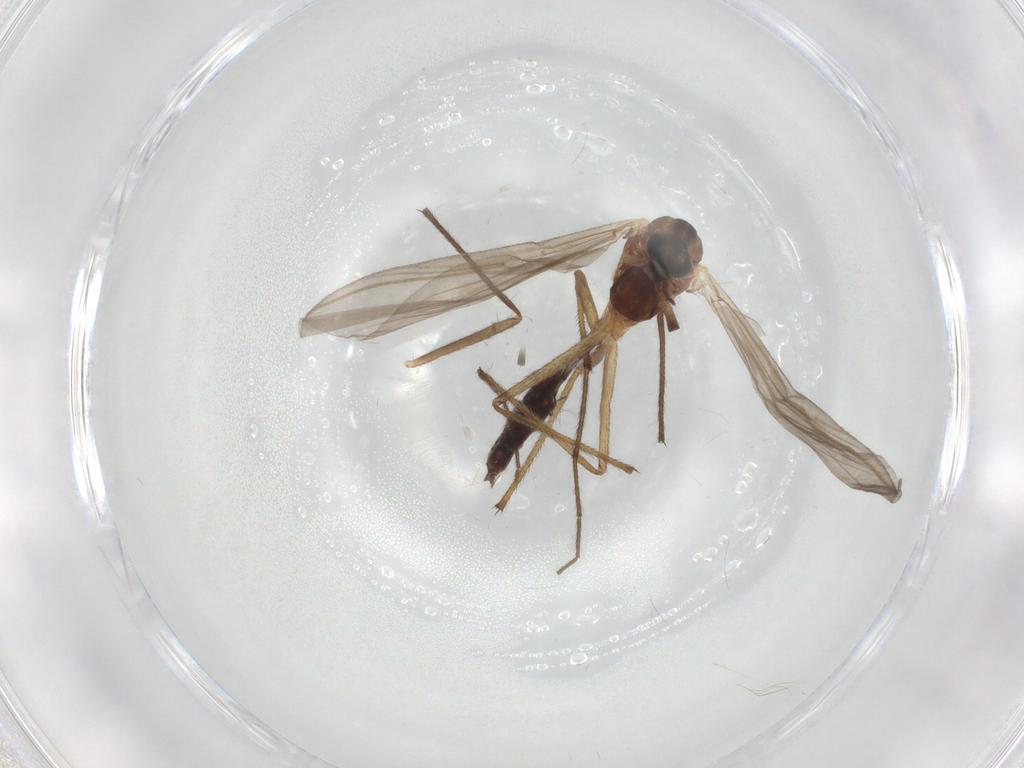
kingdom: Animalia
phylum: Arthropoda
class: Insecta
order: Diptera
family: Chironomidae
